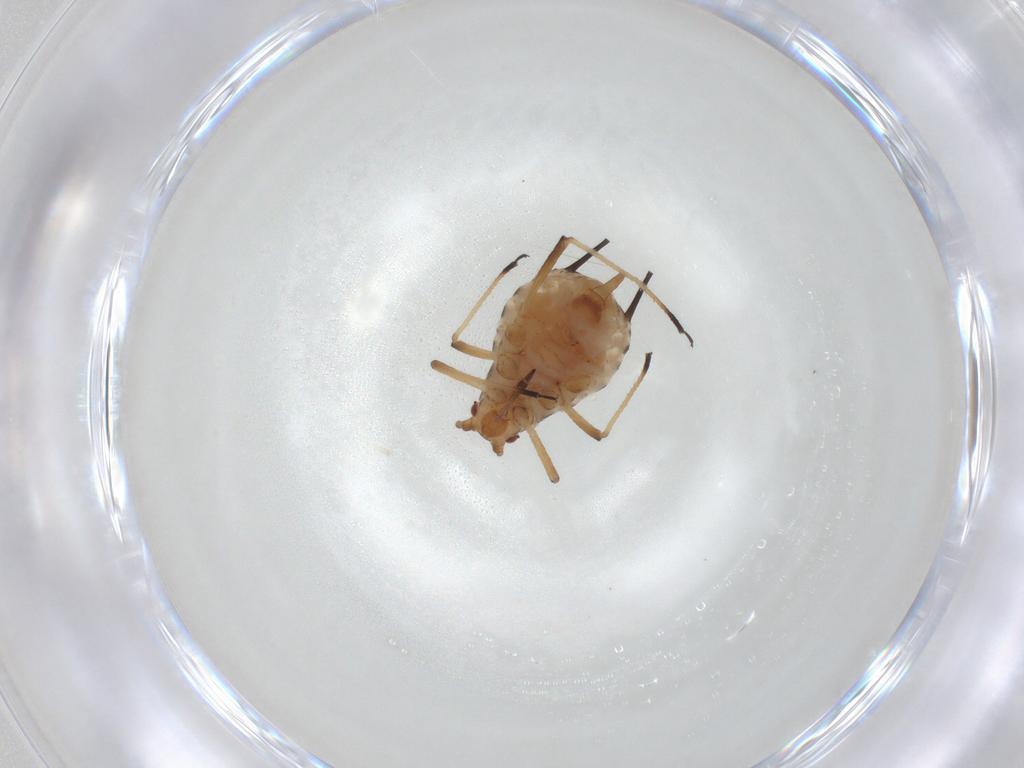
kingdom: Animalia
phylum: Arthropoda
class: Insecta
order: Hemiptera
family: Aphididae
